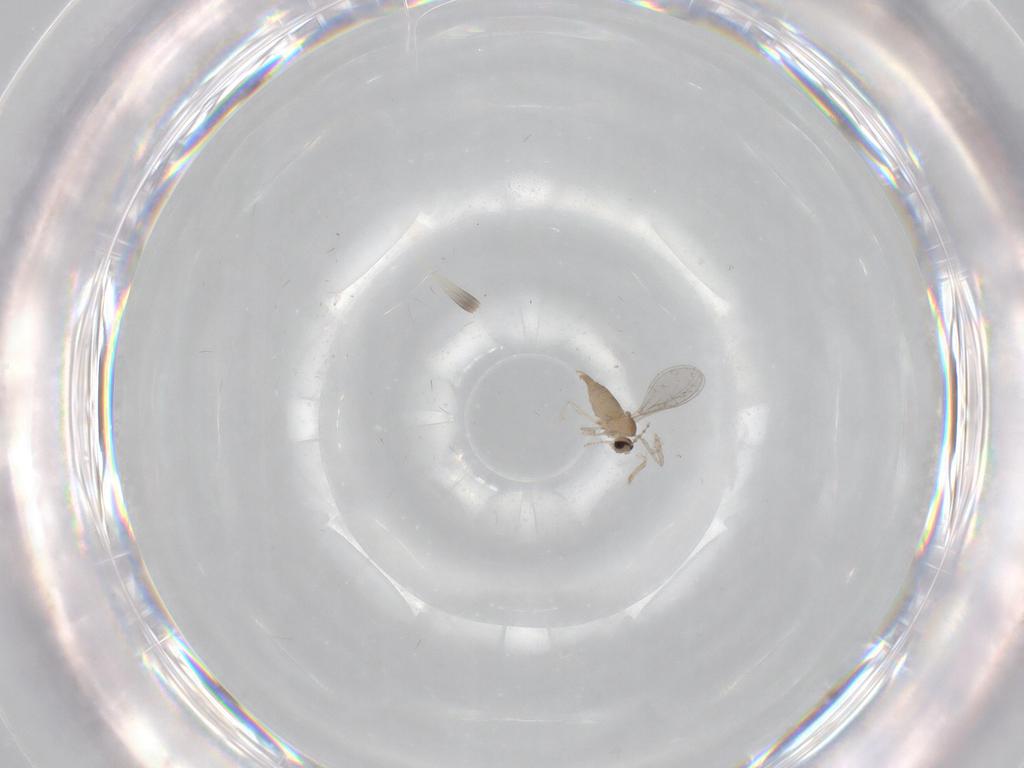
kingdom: Animalia
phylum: Arthropoda
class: Insecta
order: Diptera
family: Cecidomyiidae
